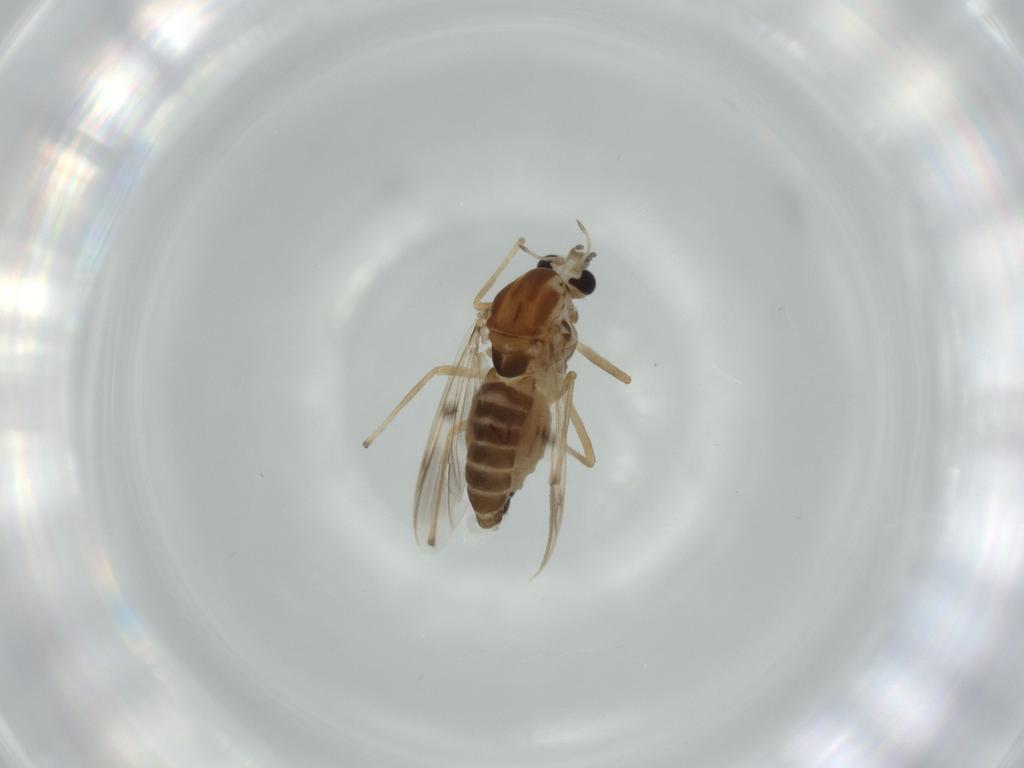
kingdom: Animalia
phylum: Arthropoda
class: Insecta
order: Diptera
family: Chironomidae
